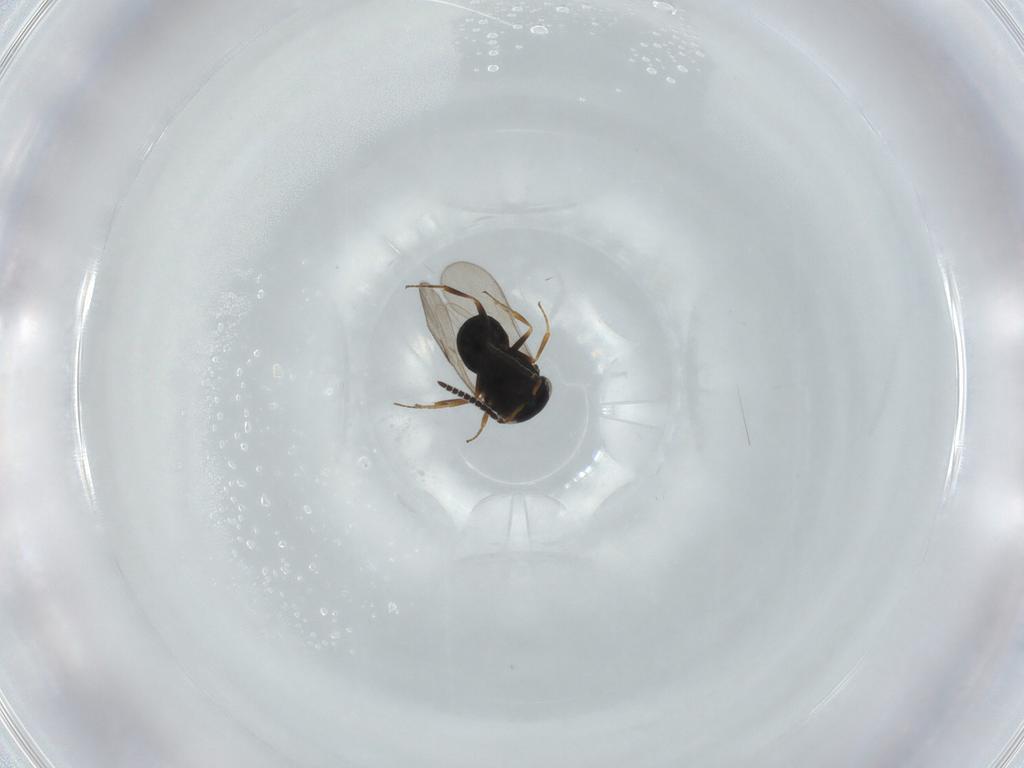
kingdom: Animalia
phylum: Arthropoda
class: Insecta
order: Hymenoptera
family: Scelionidae
